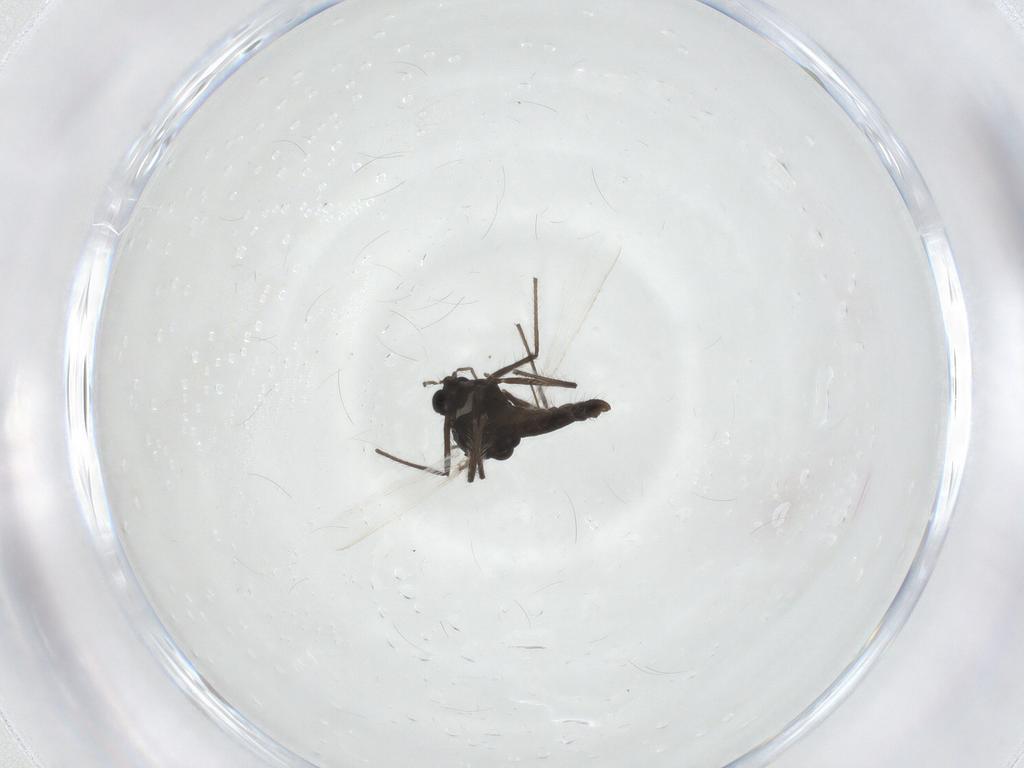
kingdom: Animalia
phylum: Arthropoda
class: Insecta
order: Diptera
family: Chironomidae
